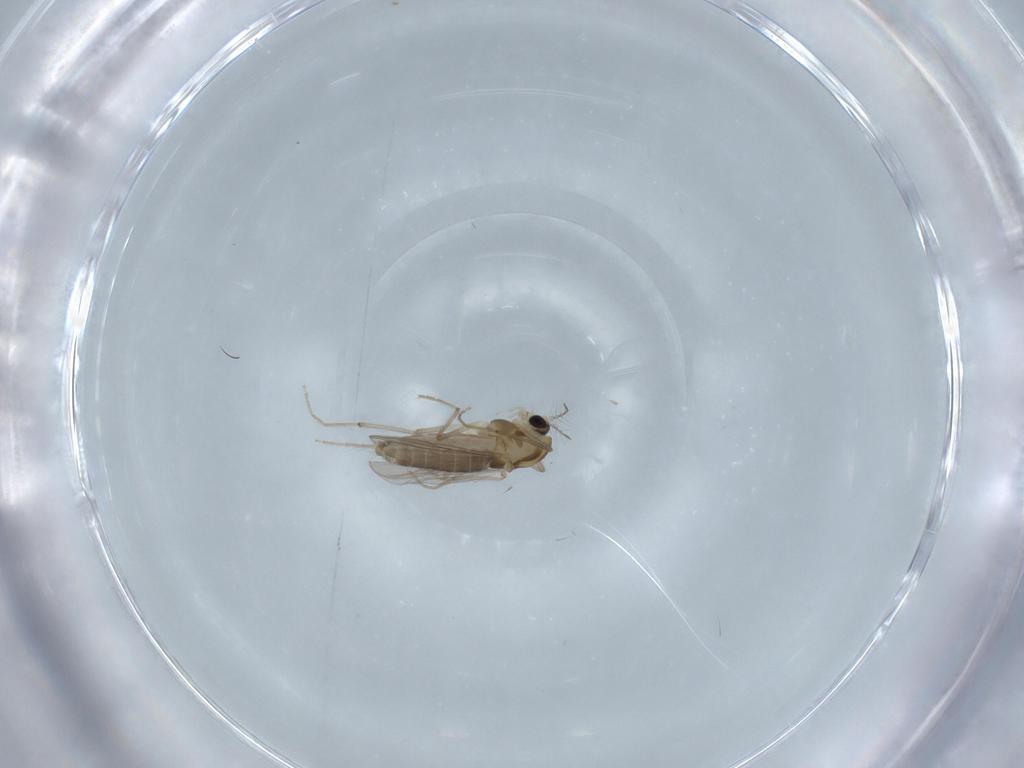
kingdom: Animalia
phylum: Arthropoda
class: Insecta
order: Diptera
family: Chironomidae
